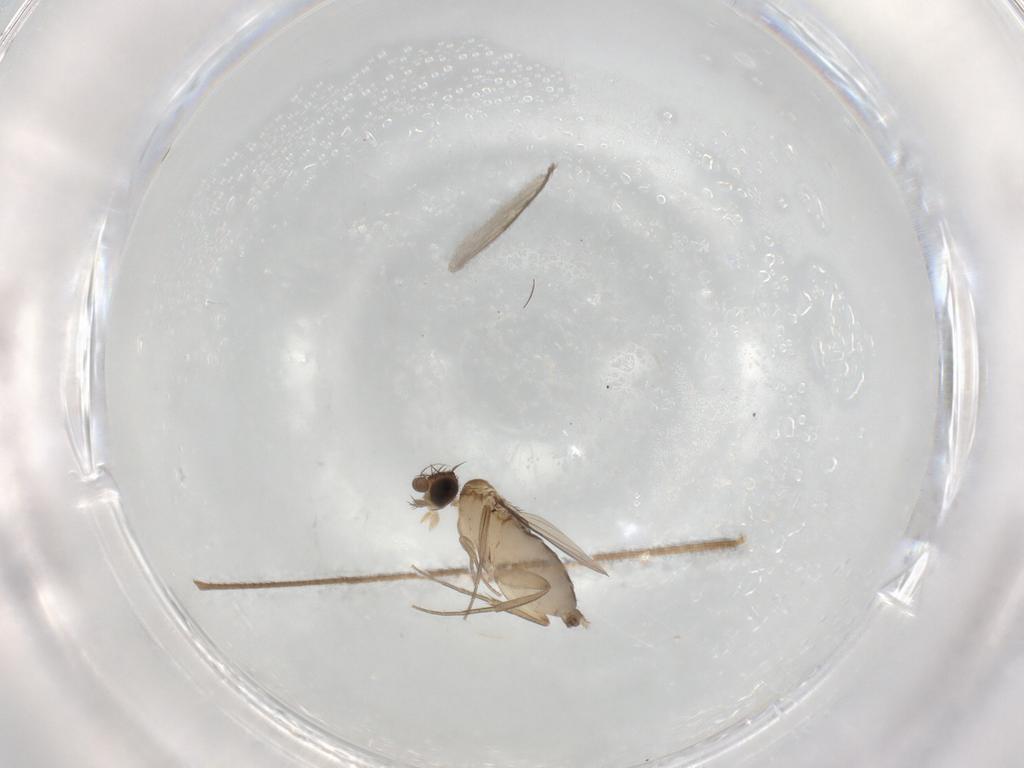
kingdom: Animalia
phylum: Arthropoda
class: Insecta
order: Diptera
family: Phoridae
